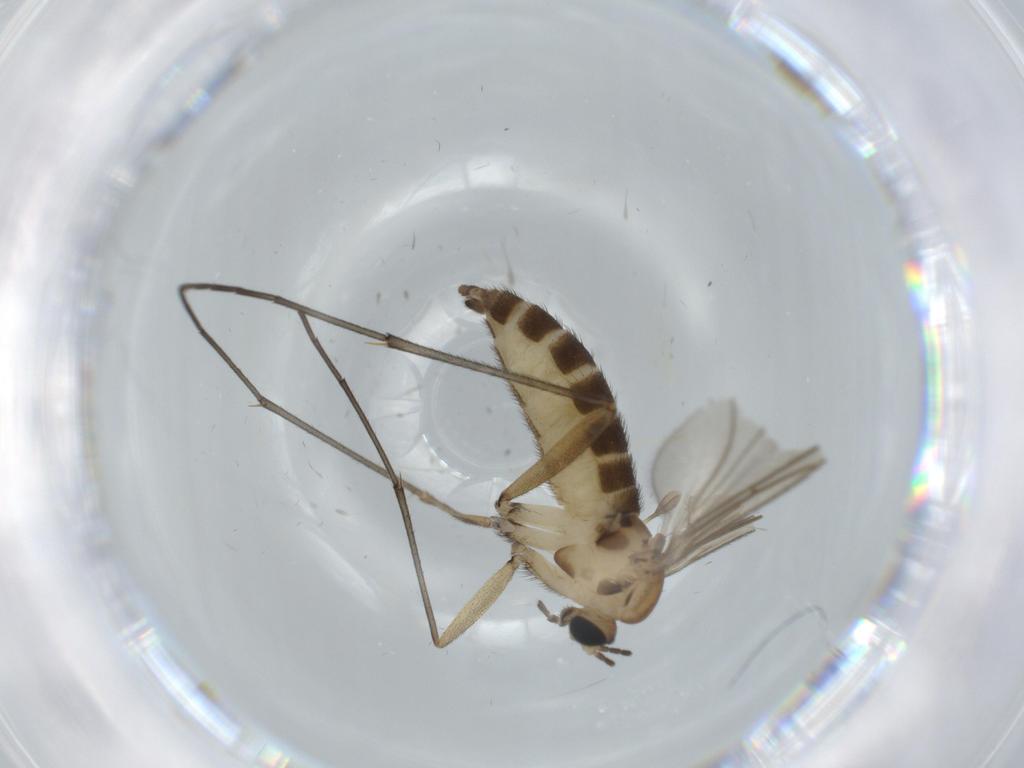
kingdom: Animalia
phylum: Arthropoda
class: Insecta
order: Diptera
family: Sciaridae
